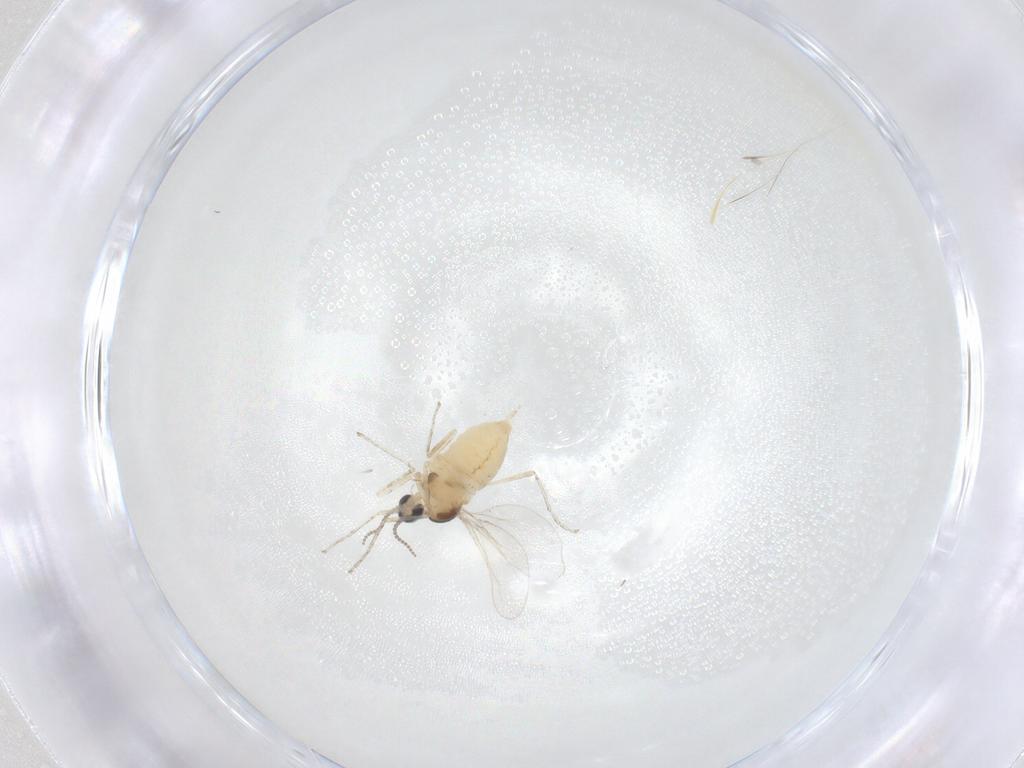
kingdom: Animalia
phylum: Arthropoda
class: Insecta
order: Diptera
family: Cecidomyiidae
